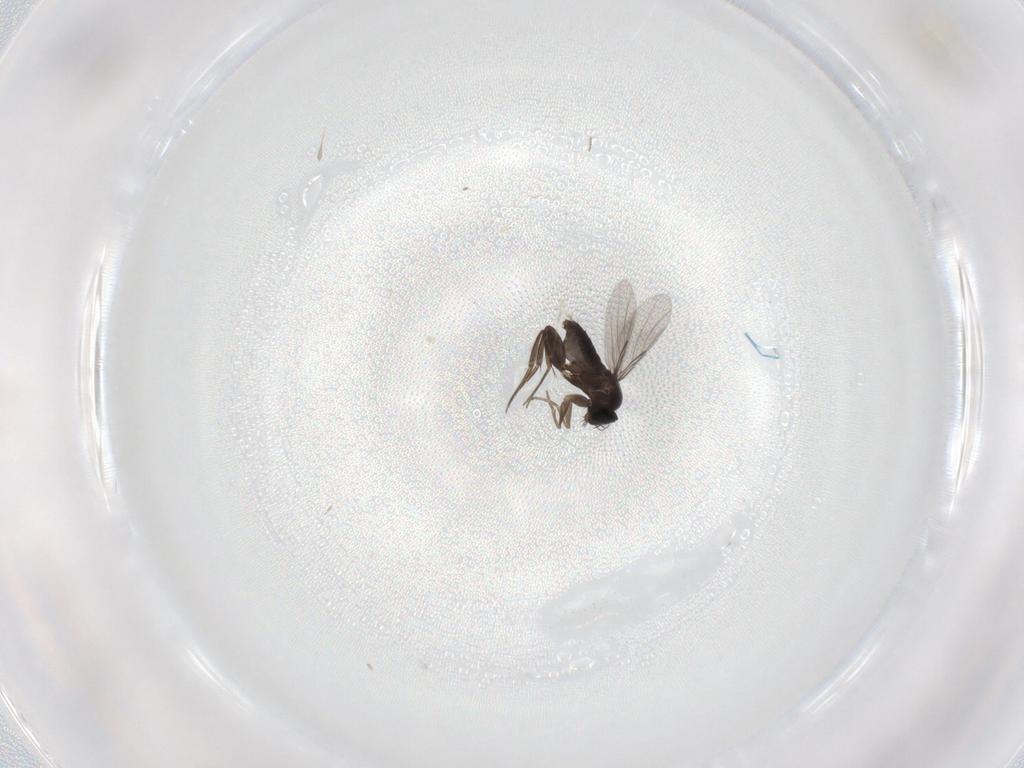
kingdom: Animalia
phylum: Arthropoda
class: Insecta
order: Diptera
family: Phoridae
